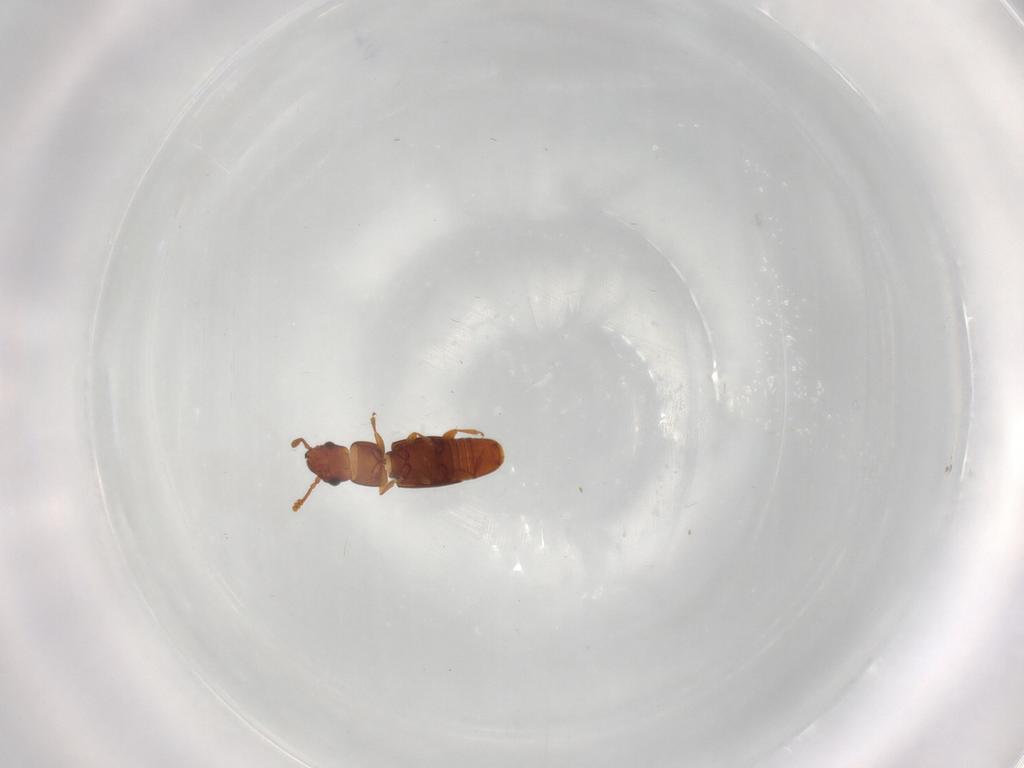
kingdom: Animalia
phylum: Arthropoda
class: Insecta
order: Coleoptera
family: Smicripidae
